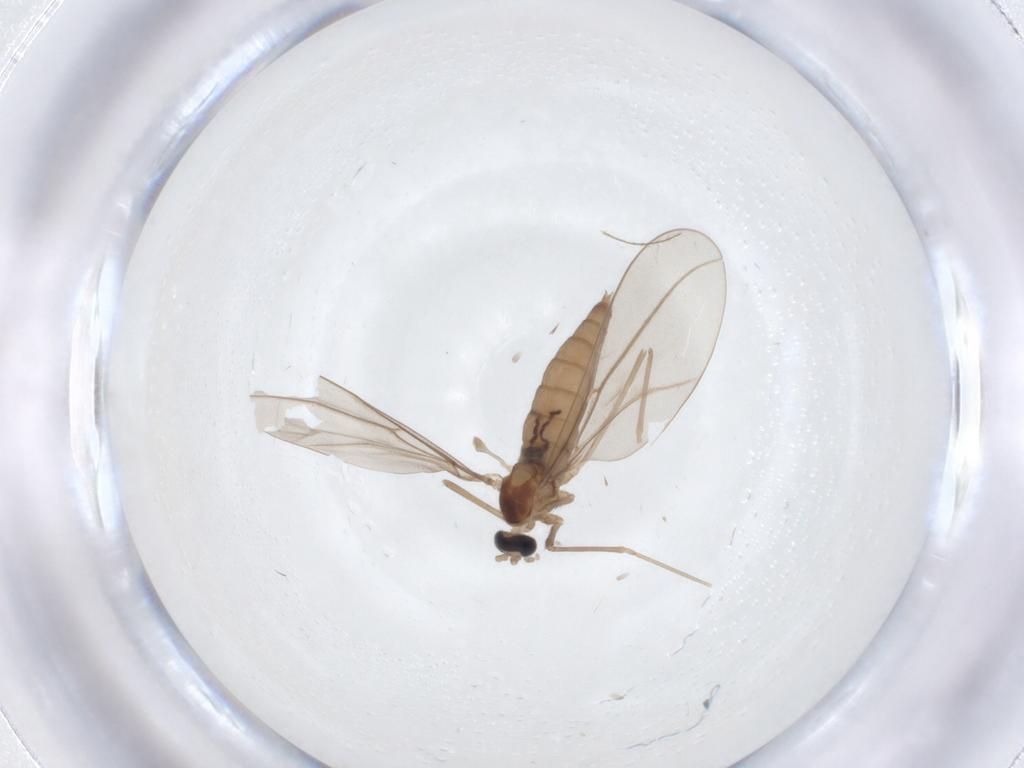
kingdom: Animalia
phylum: Arthropoda
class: Insecta
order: Diptera
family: Cecidomyiidae
